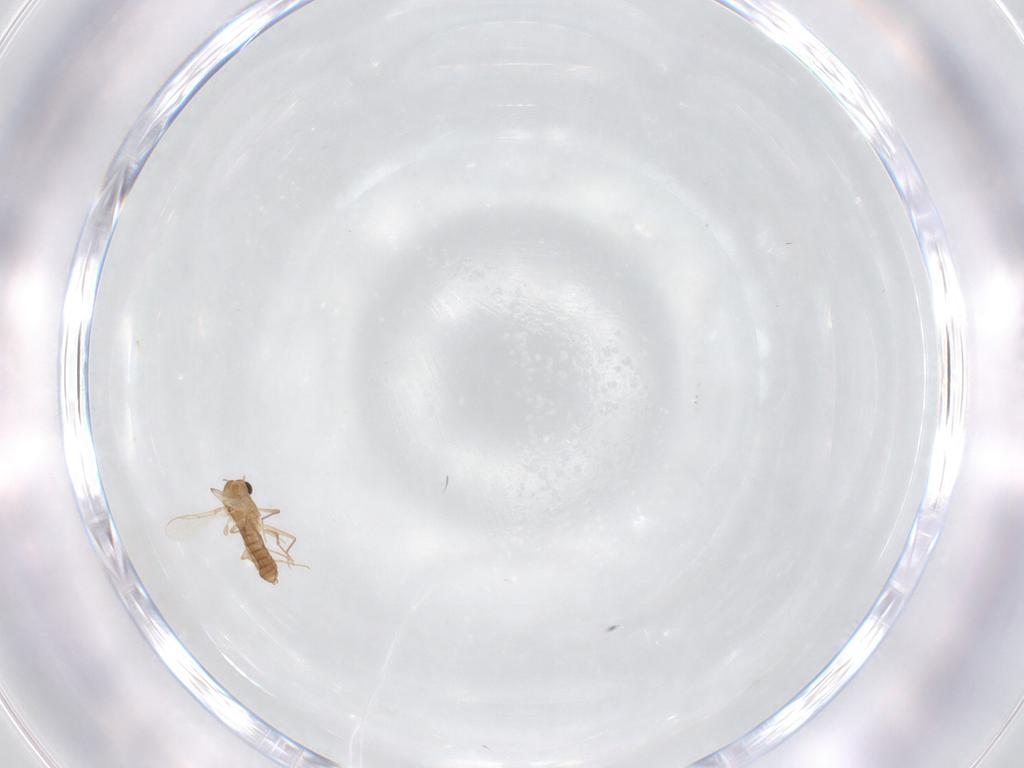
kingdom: Animalia
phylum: Arthropoda
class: Insecta
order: Diptera
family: Chironomidae
